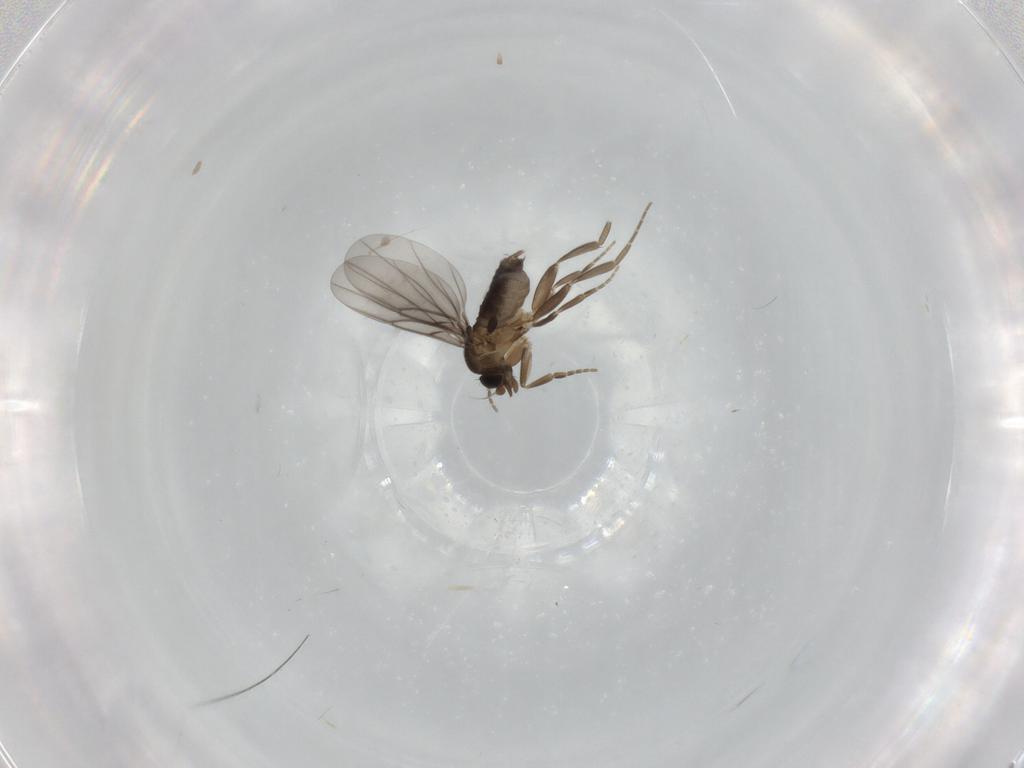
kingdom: Animalia
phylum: Arthropoda
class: Insecta
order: Diptera
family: Phoridae
